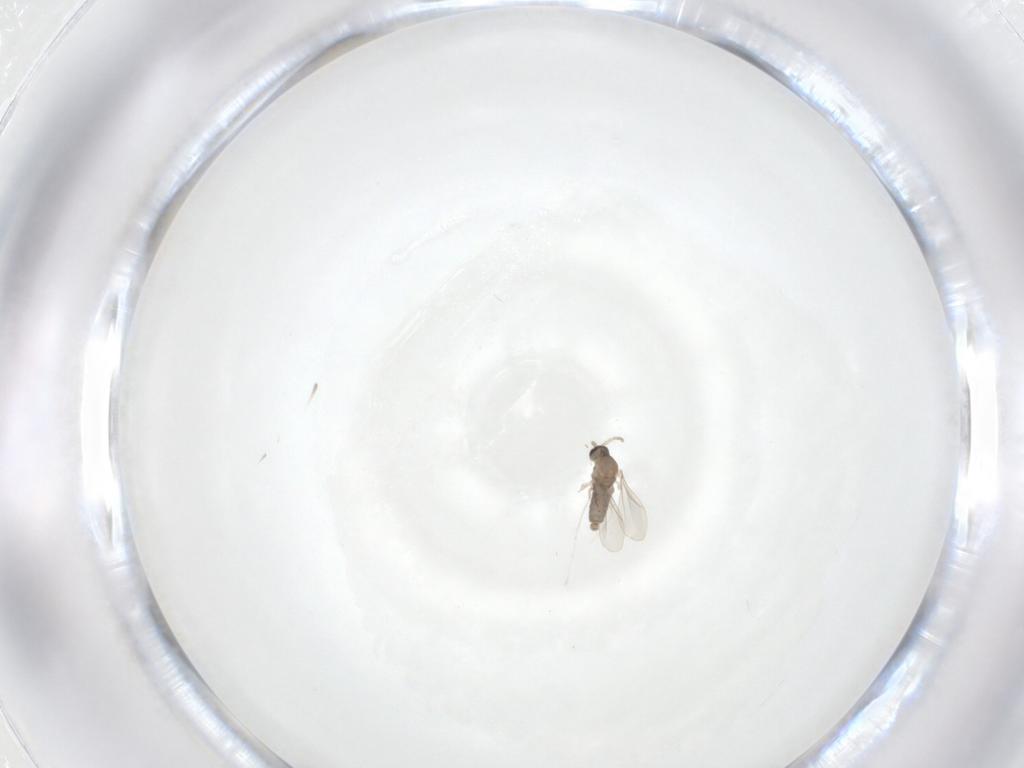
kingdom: Animalia
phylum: Arthropoda
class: Insecta
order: Diptera
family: Cecidomyiidae
